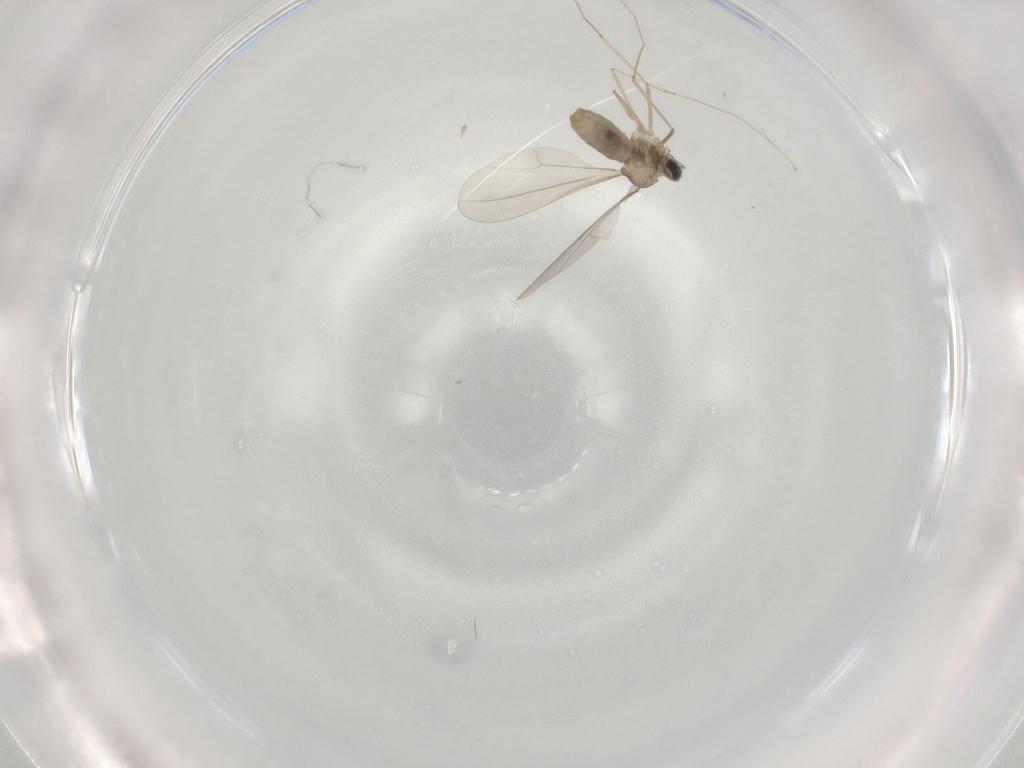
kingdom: Animalia
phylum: Arthropoda
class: Insecta
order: Diptera
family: Cecidomyiidae
